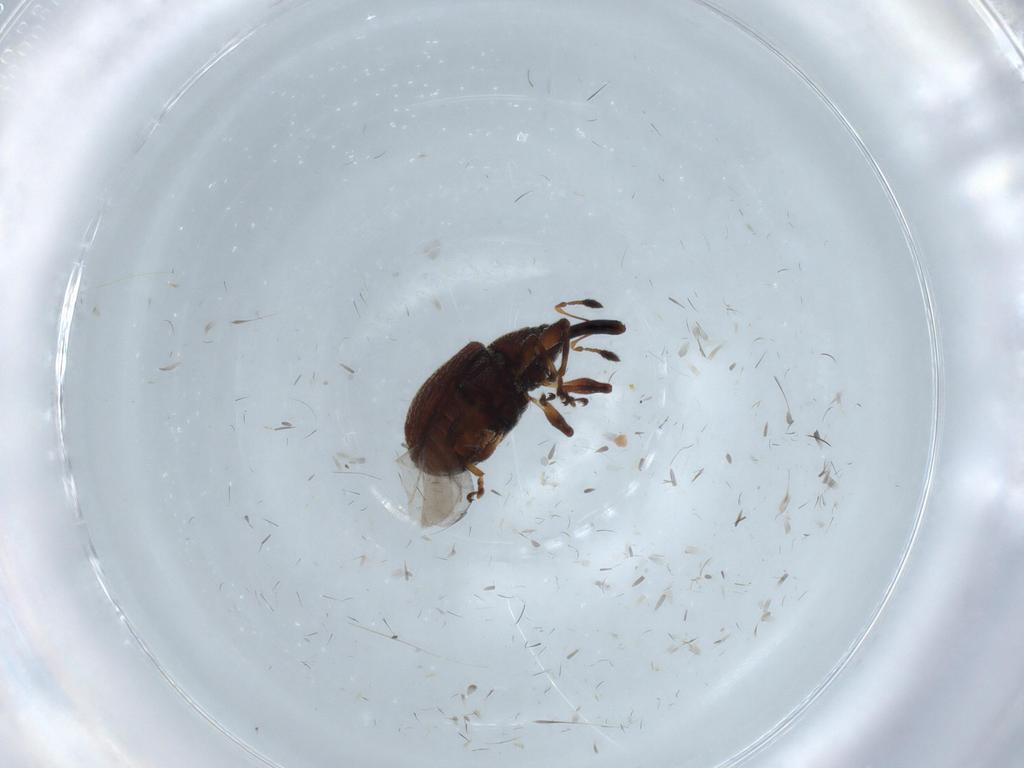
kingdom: Animalia
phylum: Arthropoda
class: Insecta
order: Coleoptera
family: Curculionidae
